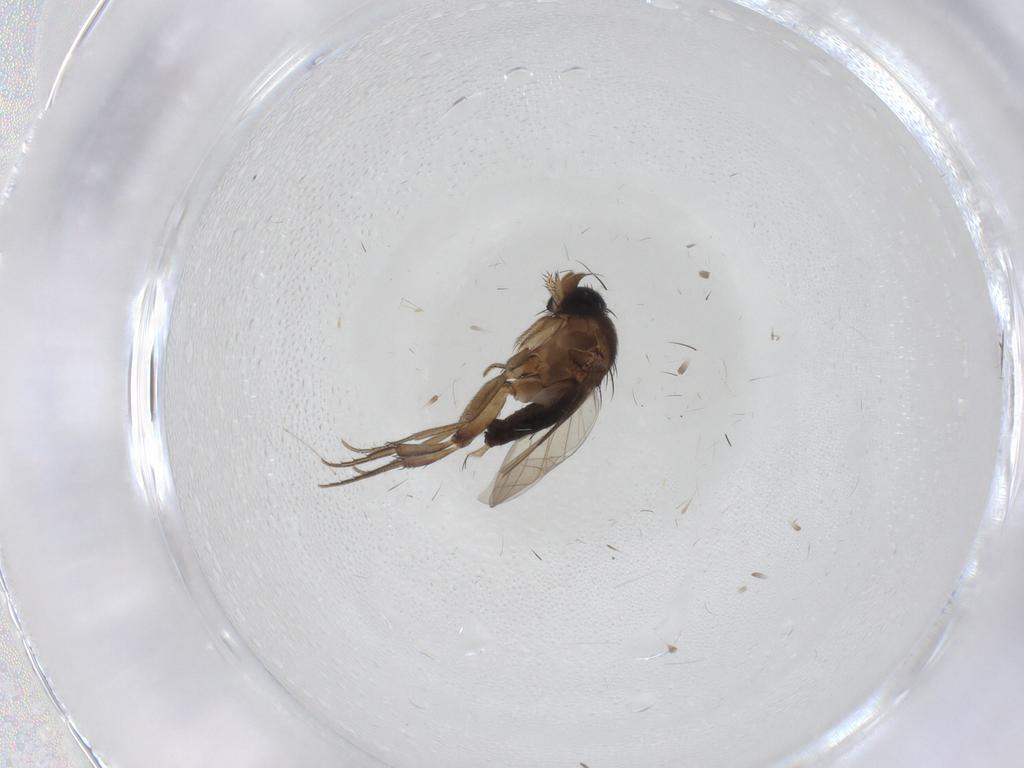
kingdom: Animalia
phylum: Arthropoda
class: Insecta
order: Diptera
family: Phoridae
